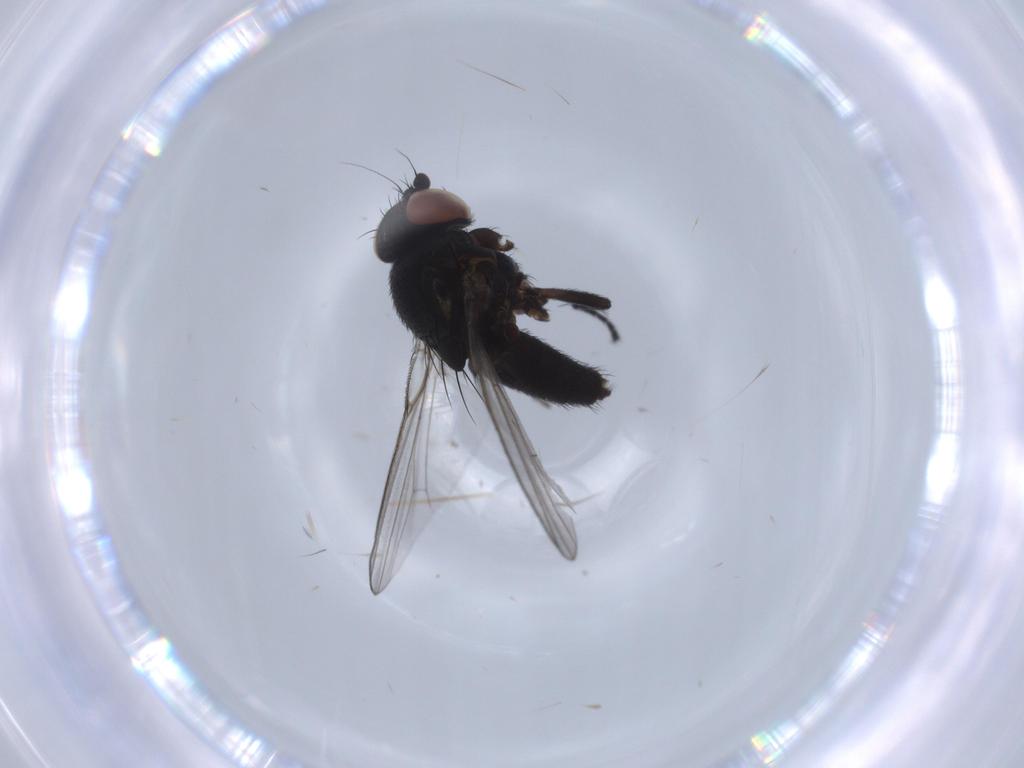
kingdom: Animalia
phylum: Arthropoda
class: Insecta
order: Diptera
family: Milichiidae
